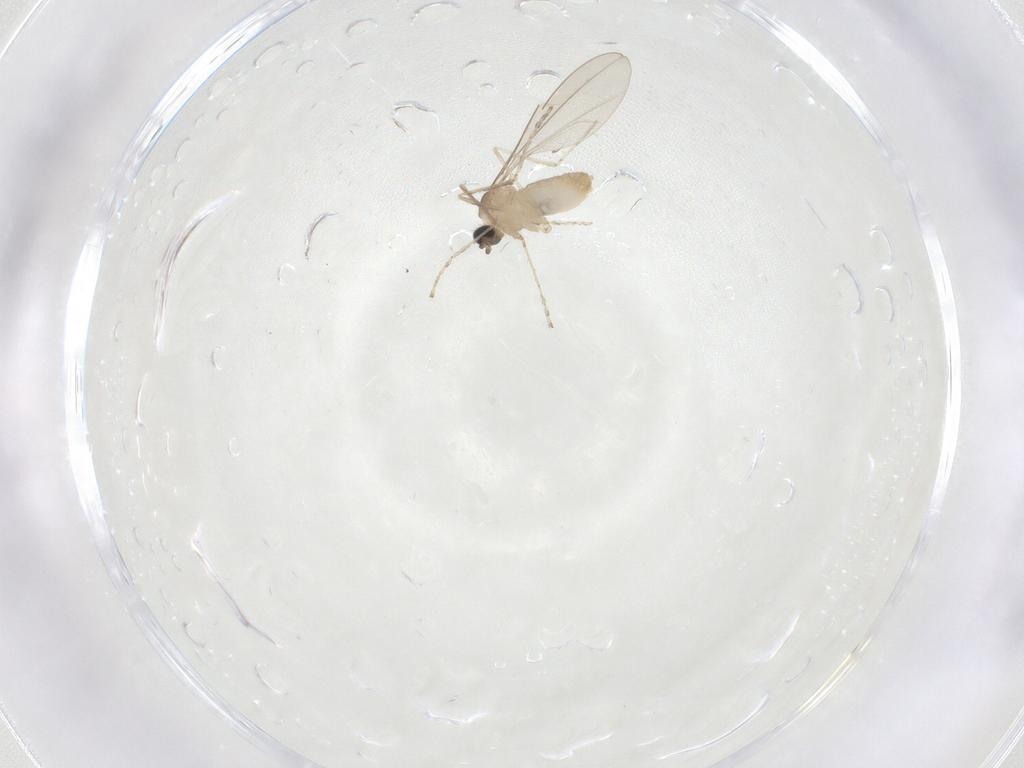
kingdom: Animalia
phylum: Arthropoda
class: Insecta
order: Diptera
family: Cecidomyiidae
